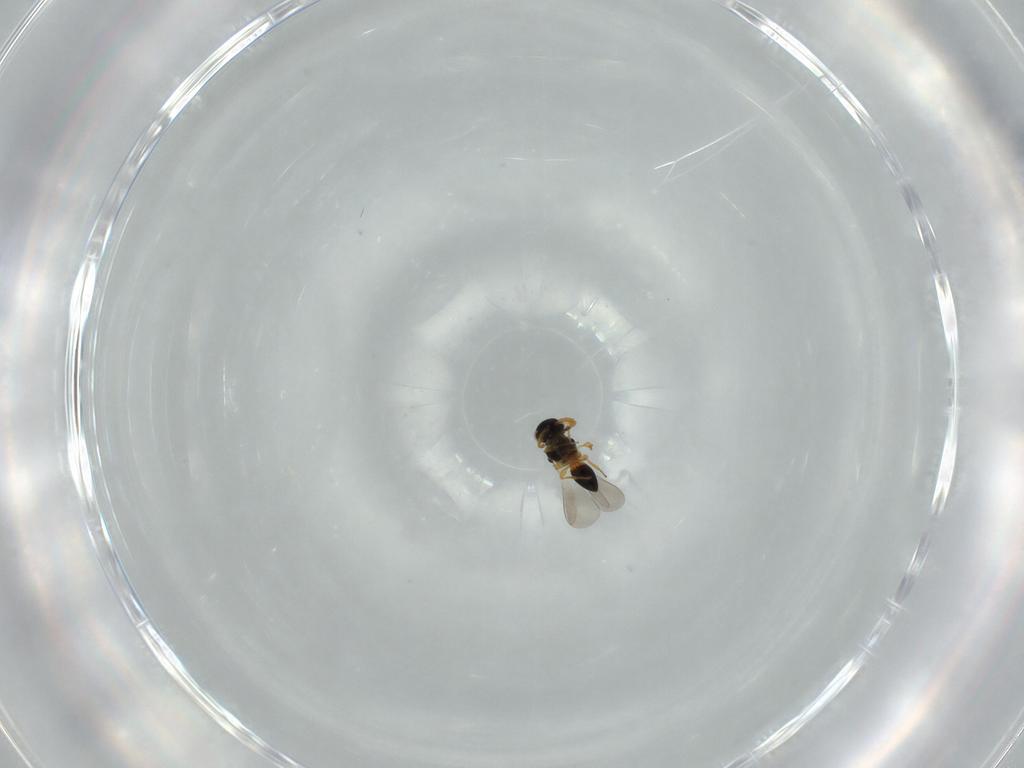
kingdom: Animalia
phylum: Arthropoda
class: Insecta
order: Hymenoptera
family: Platygastridae
